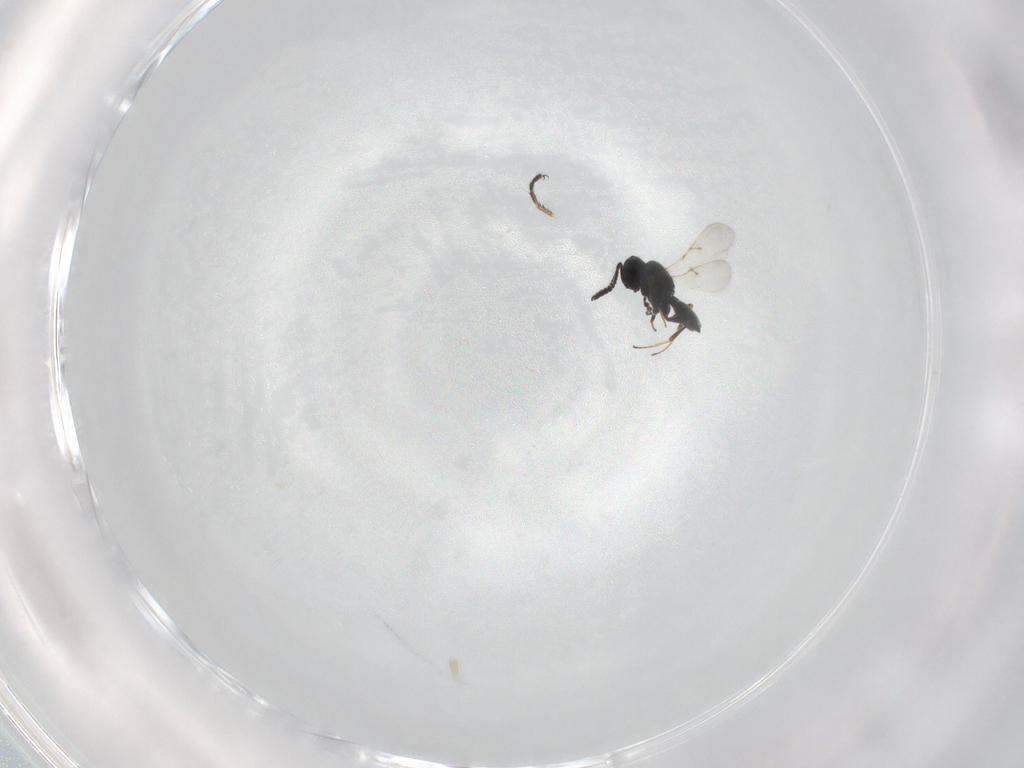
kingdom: Animalia
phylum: Arthropoda
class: Insecta
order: Hymenoptera
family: Scelionidae
